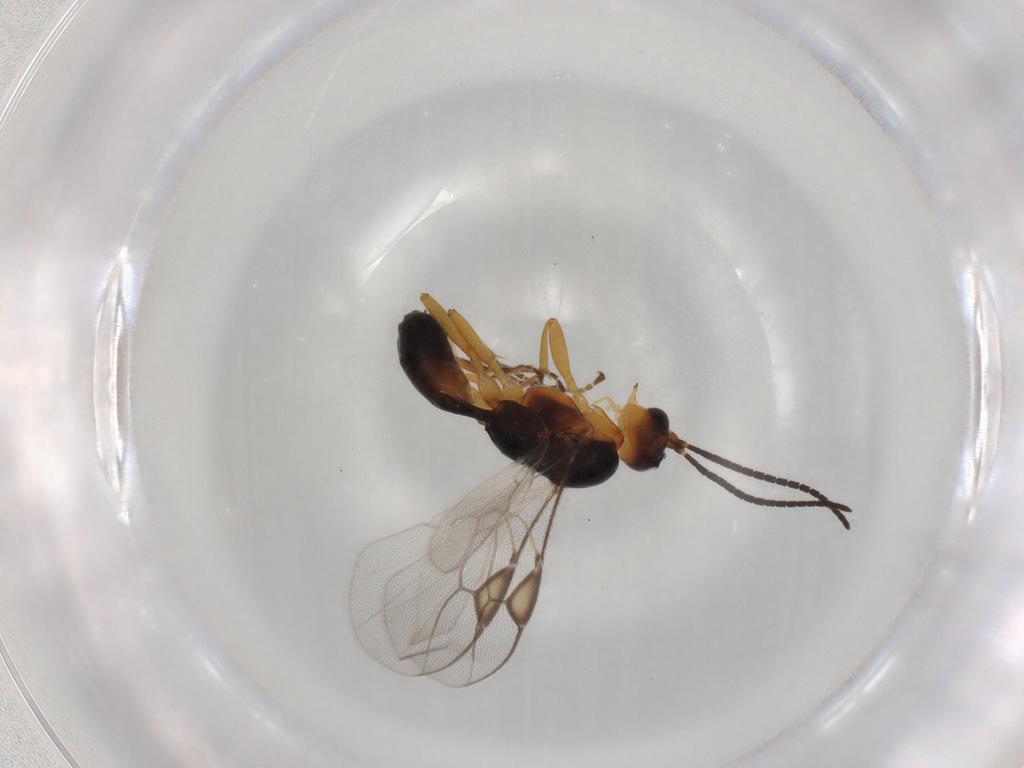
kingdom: Animalia
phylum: Arthropoda
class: Insecta
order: Hymenoptera
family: Braconidae
